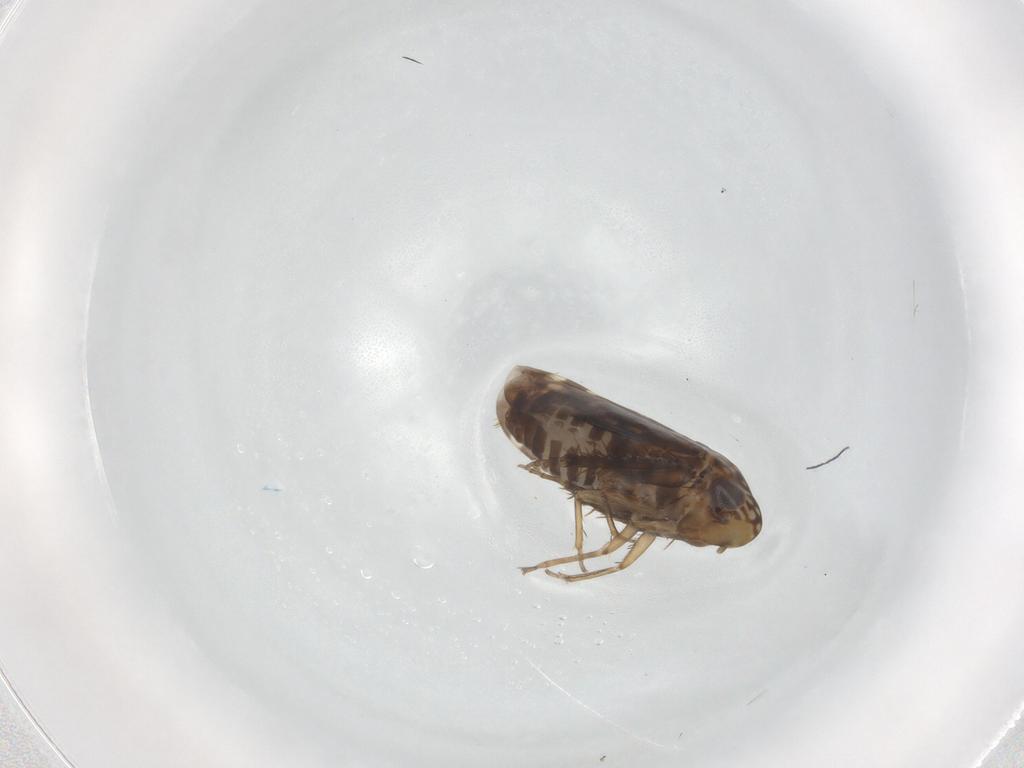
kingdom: Animalia
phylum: Arthropoda
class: Insecta
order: Hemiptera
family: Cicadellidae
